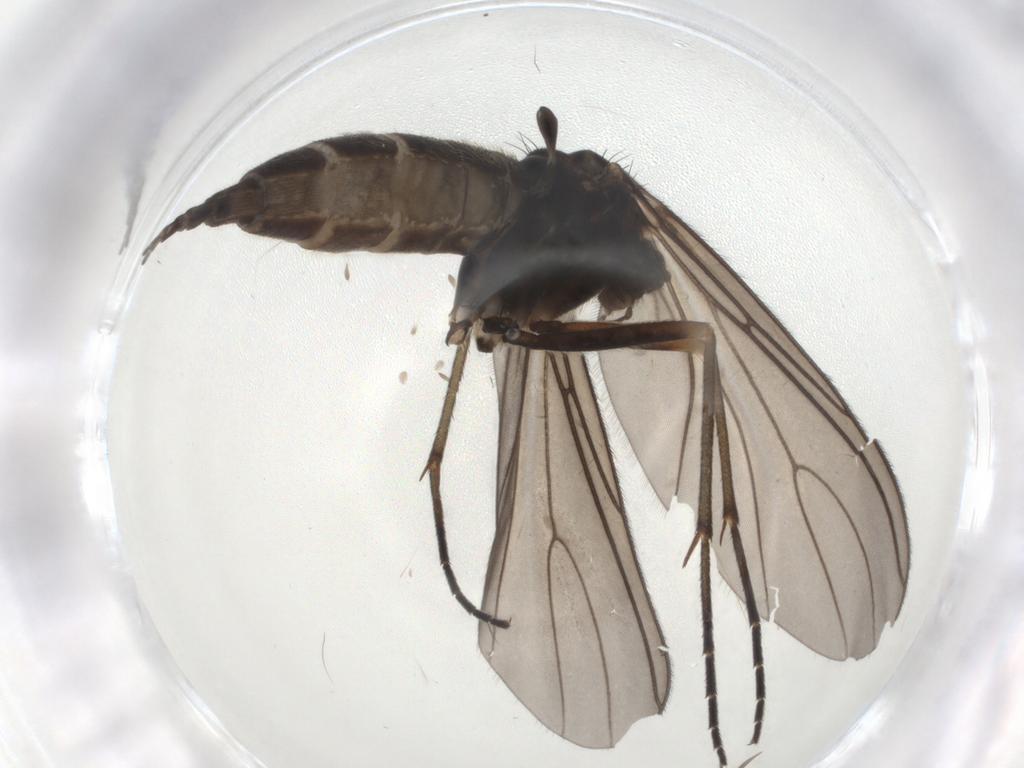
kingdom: Animalia
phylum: Arthropoda
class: Insecta
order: Diptera
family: Sciaridae
